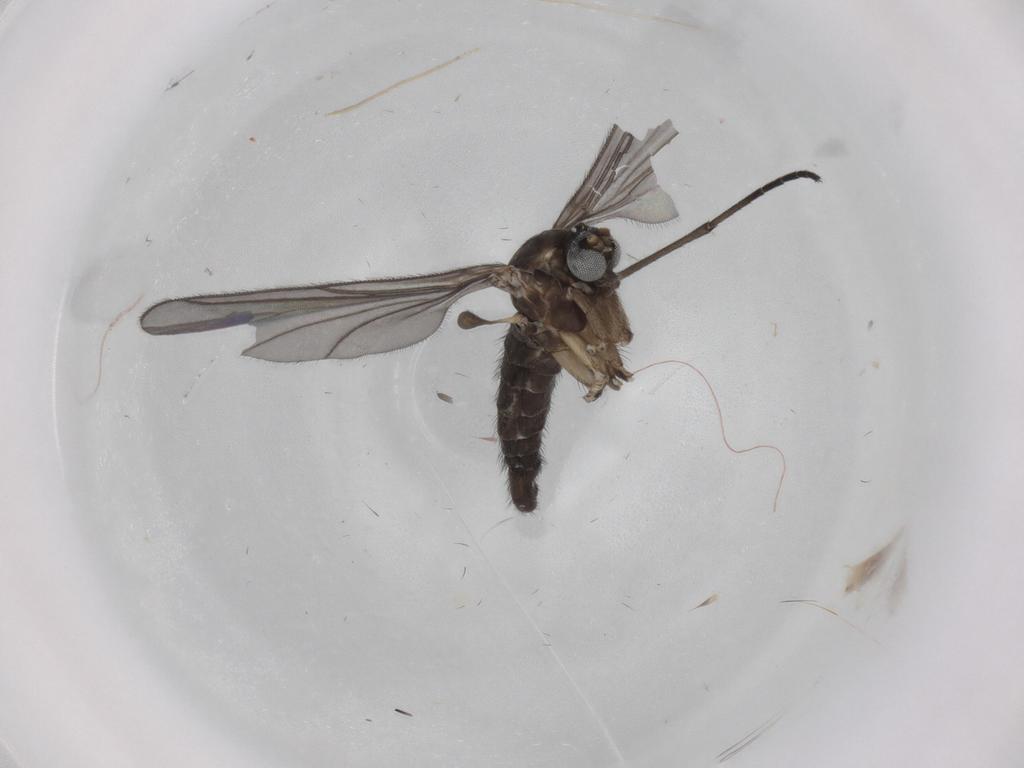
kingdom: Animalia
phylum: Arthropoda
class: Insecta
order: Diptera
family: Sciaridae
